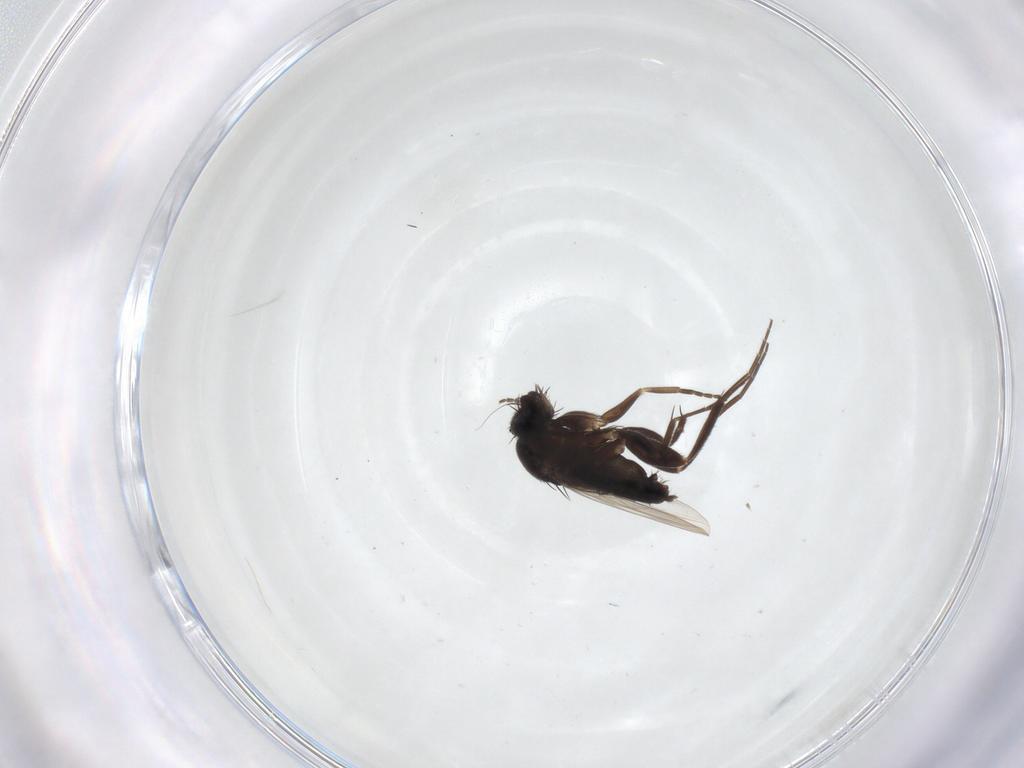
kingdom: Animalia
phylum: Arthropoda
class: Insecta
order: Diptera
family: Phoridae
